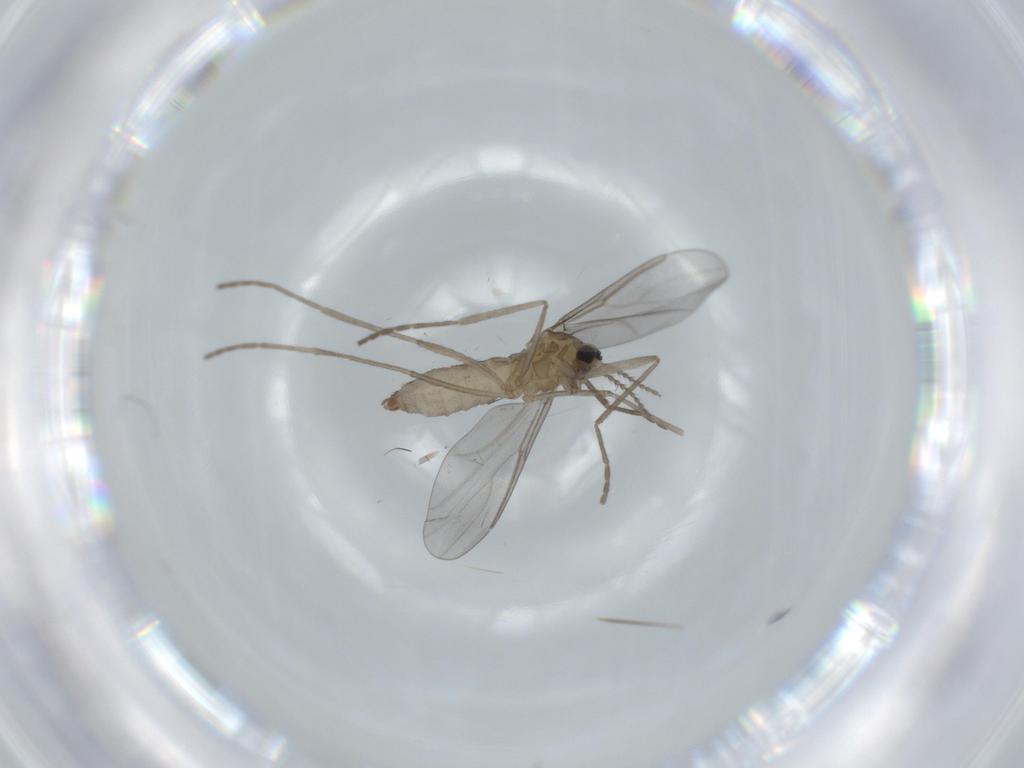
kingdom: Animalia
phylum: Arthropoda
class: Insecta
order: Diptera
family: Cecidomyiidae
